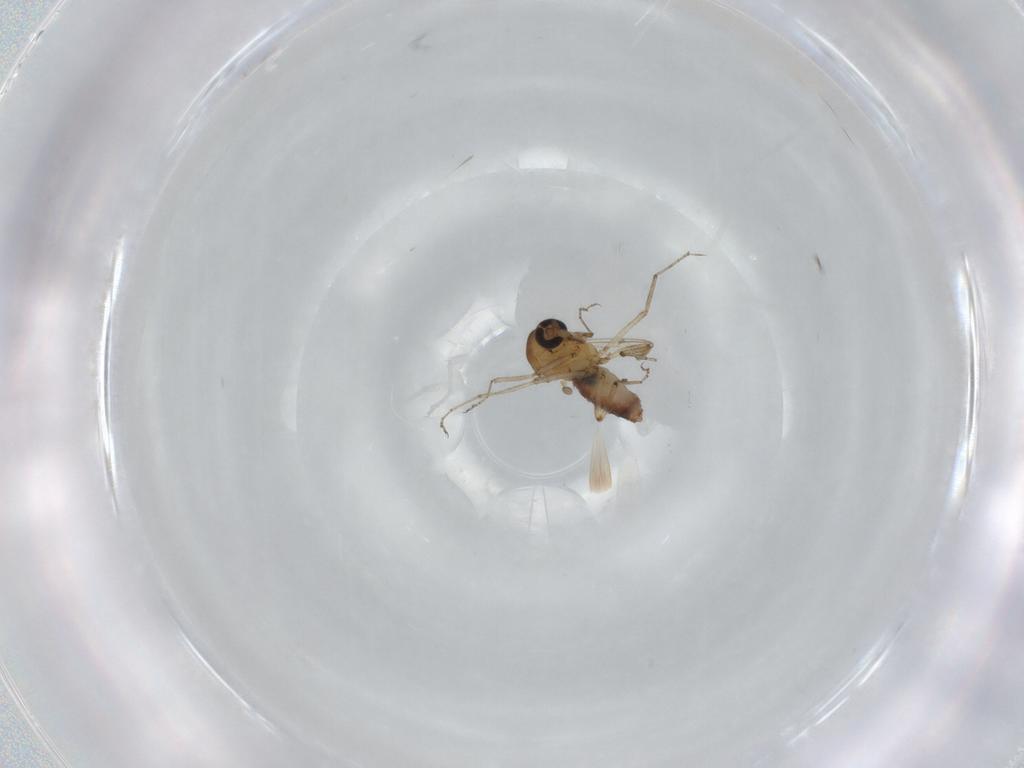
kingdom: Animalia
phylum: Arthropoda
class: Insecta
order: Diptera
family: Ceratopogonidae
